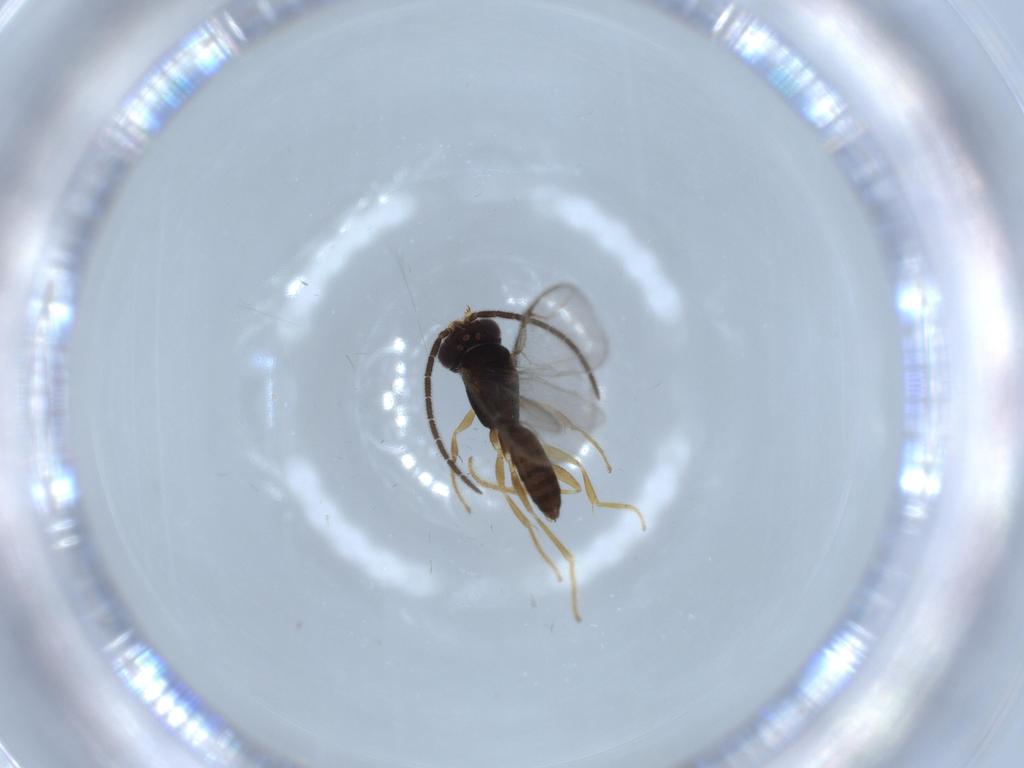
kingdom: Animalia
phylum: Arthropoda
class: Insecta
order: Hymenoptera
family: Dryinidae
